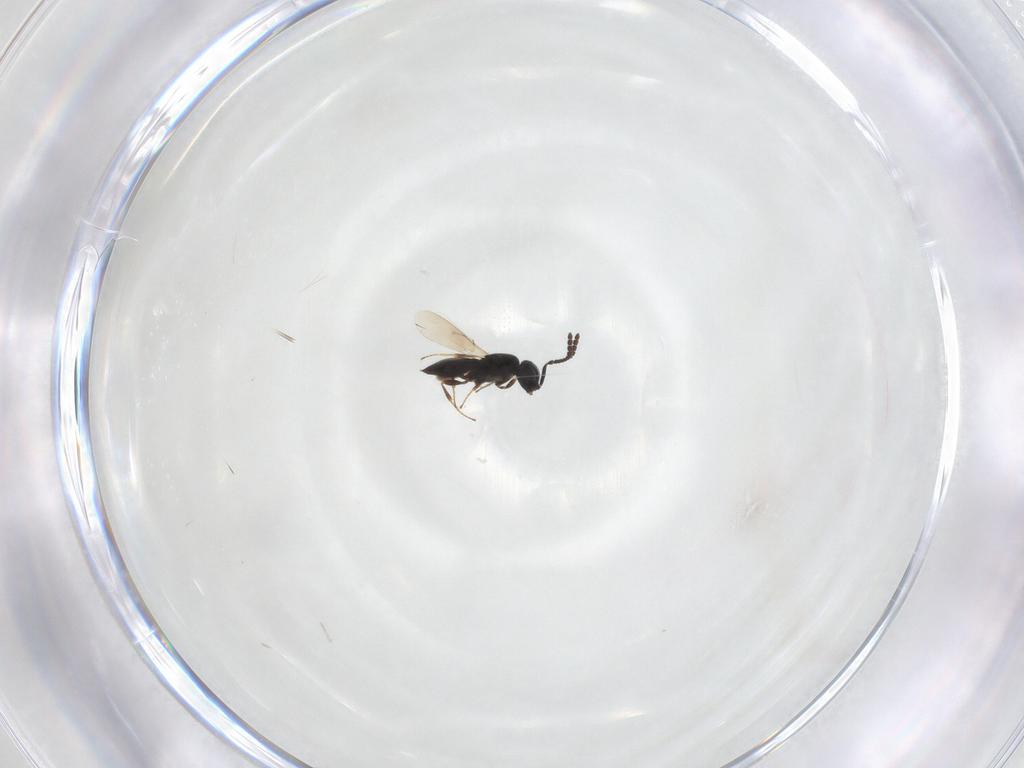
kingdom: Animalia
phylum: Arthropoda
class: Insecta
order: Hymenoptera
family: Scelionidae
